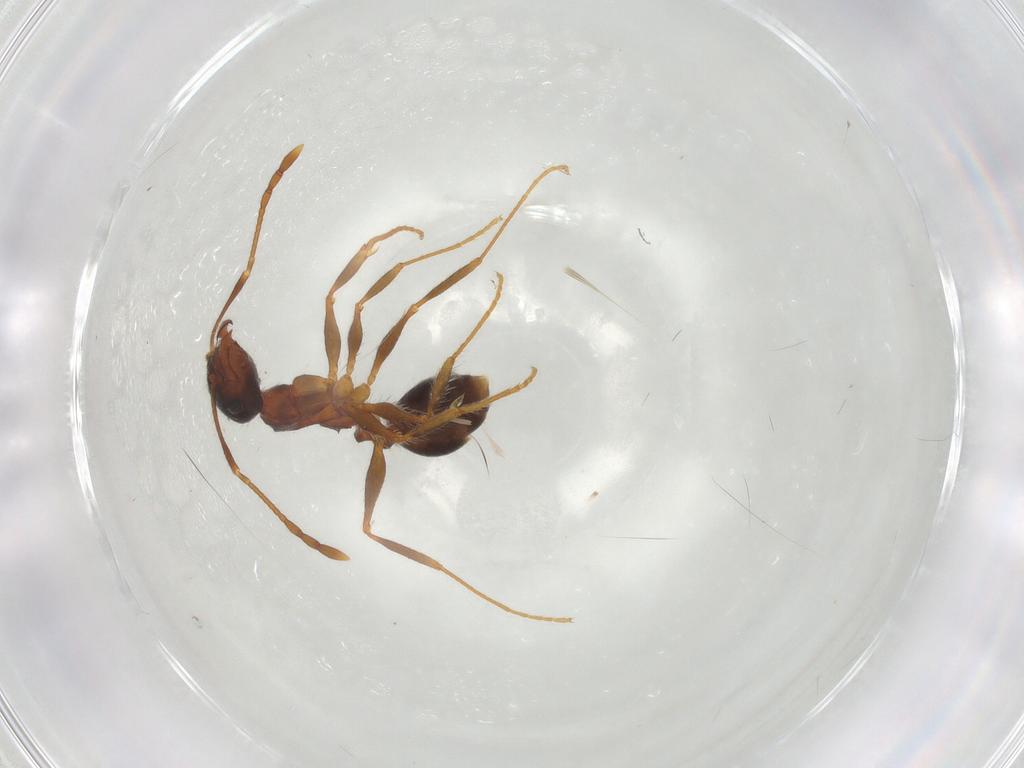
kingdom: Animalia
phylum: Arthropoda
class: Insecta
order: Hymenoptera
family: Formicidae
